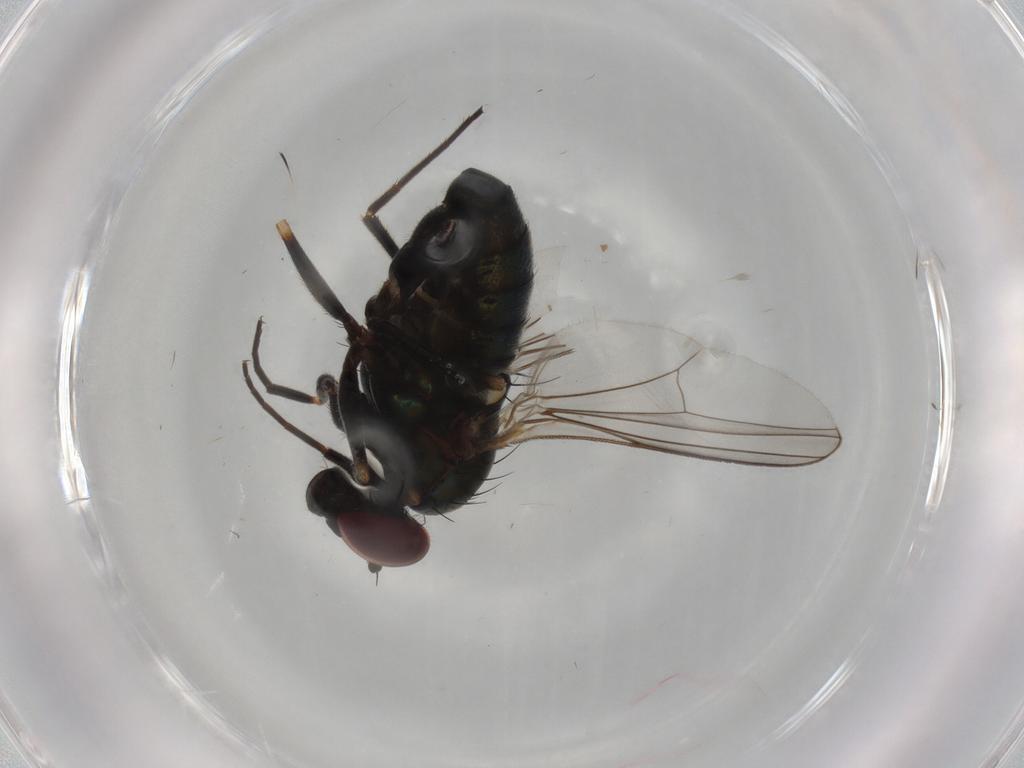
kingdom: Animalia
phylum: Arthropoda
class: Insecta
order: Diptera
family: Dolichopodidae
